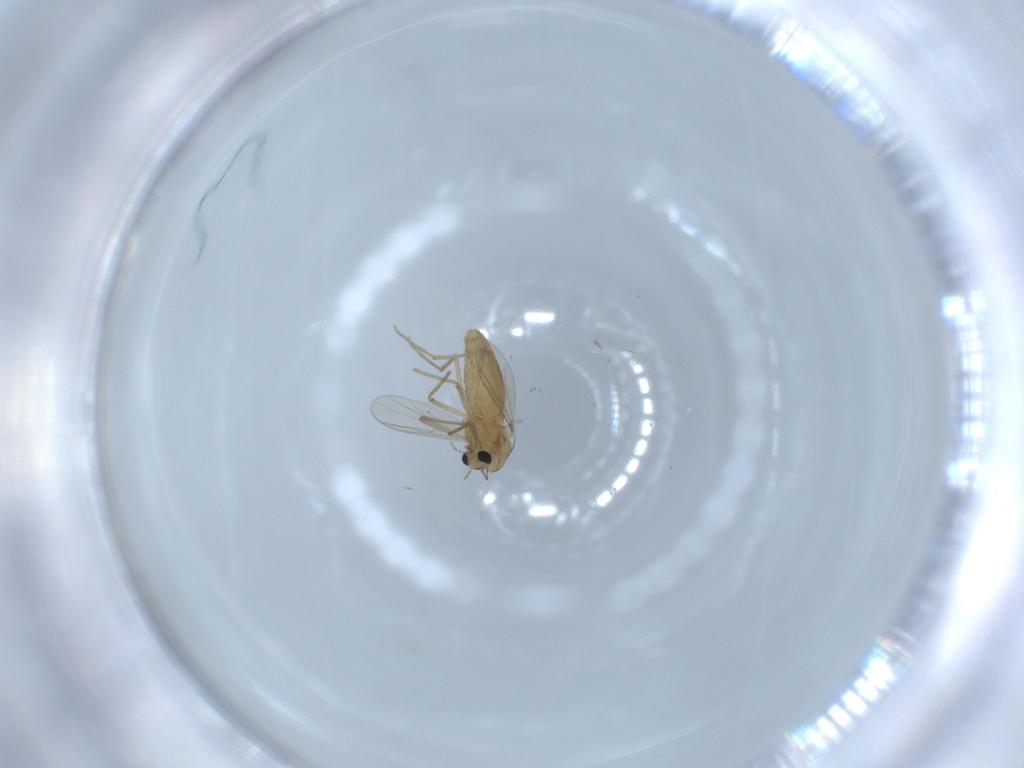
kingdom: Animalia
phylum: Arthropoda
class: Insecta
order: Diptera
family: Chironomidae
